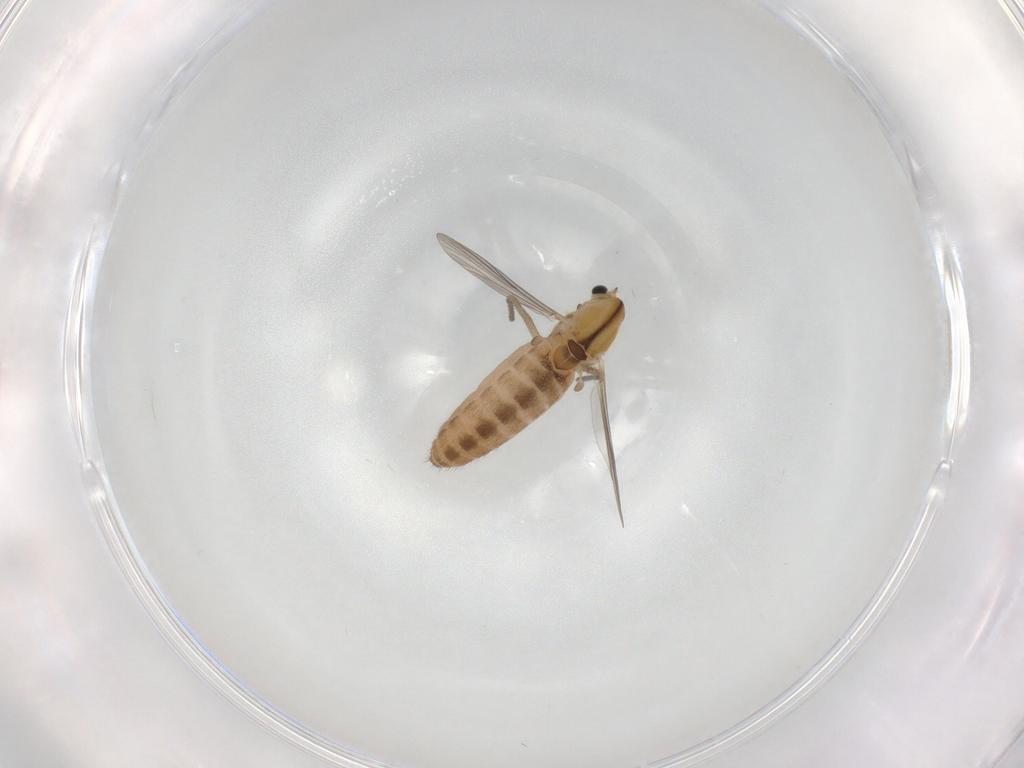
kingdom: Animalia
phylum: Arthropoda
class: Insecta
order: Diptera
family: Chironomidae
